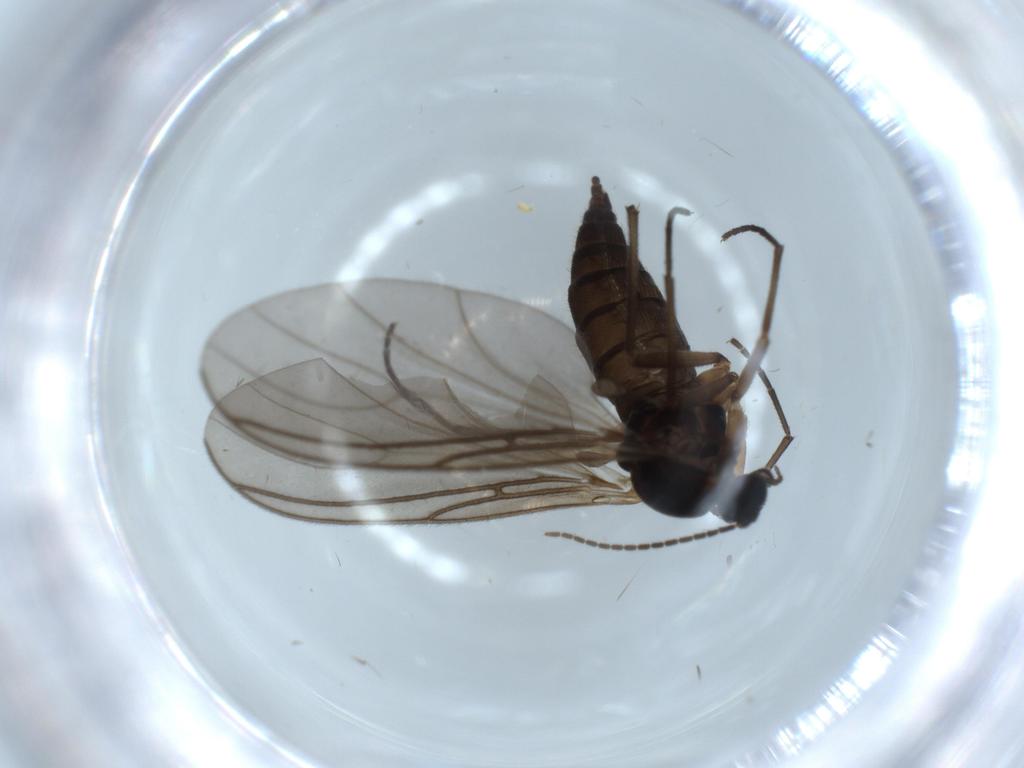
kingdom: Animalia
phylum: Arthropoda
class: Insecta
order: Diptera
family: Sciaridae
